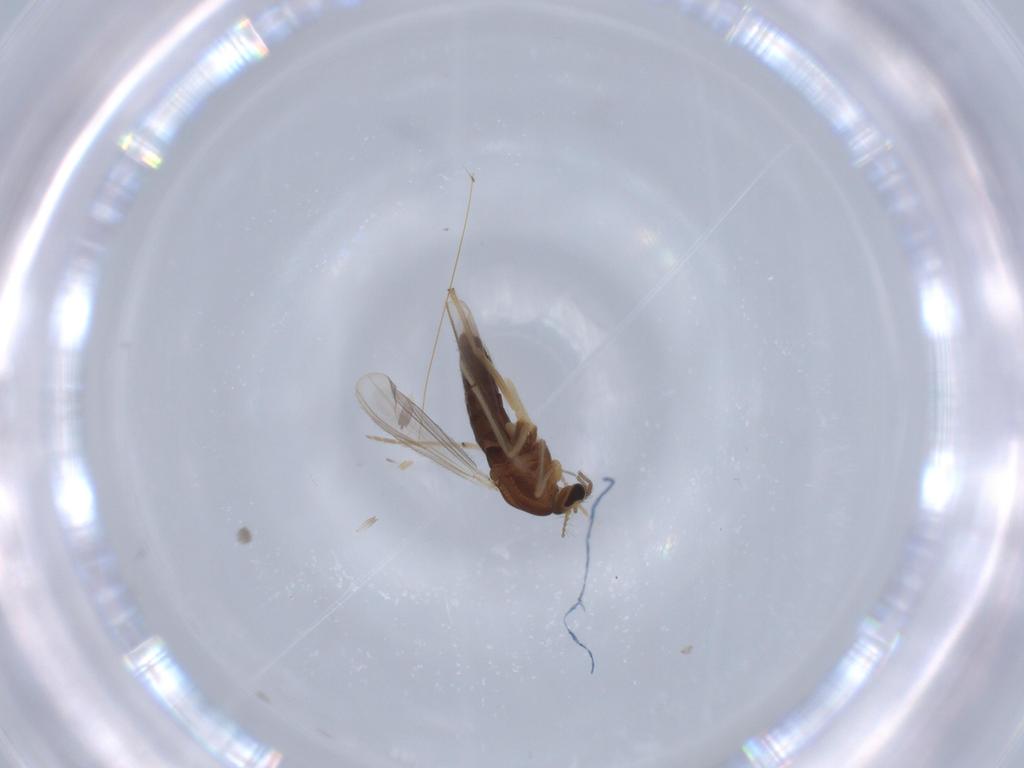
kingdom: Animalia
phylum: Arthropoda
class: Insecta
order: Diptera
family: Chironomidae
